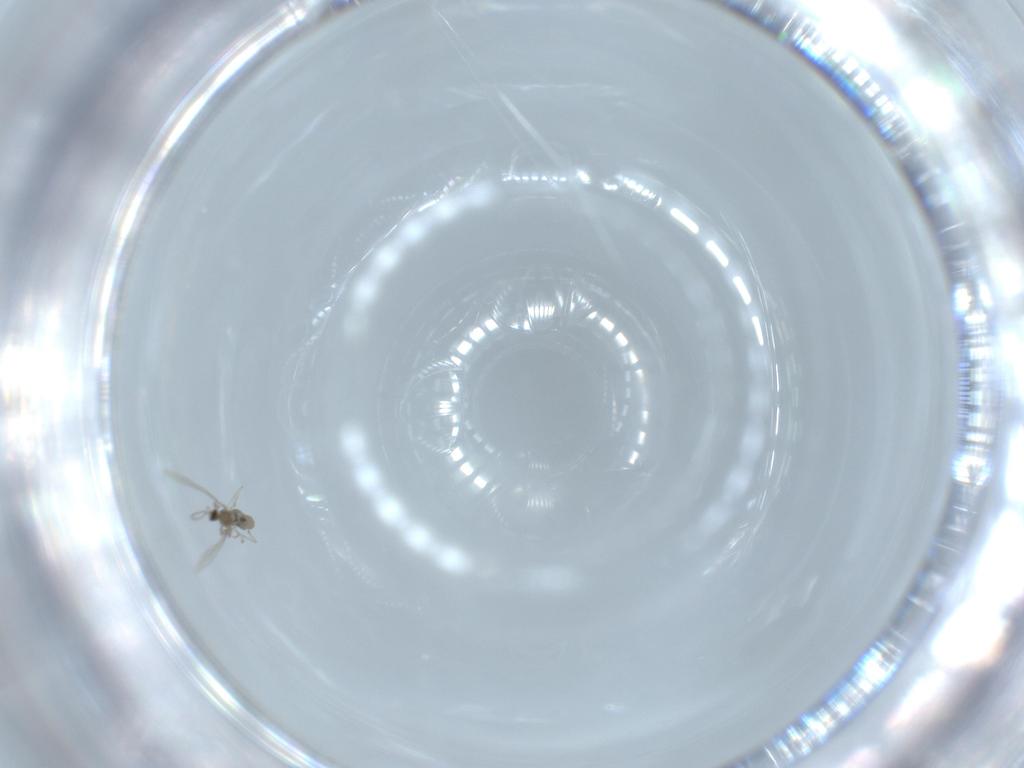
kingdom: Animalia
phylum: Arthropoda
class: Insecta
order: Diptera
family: Cecidomyiidae
